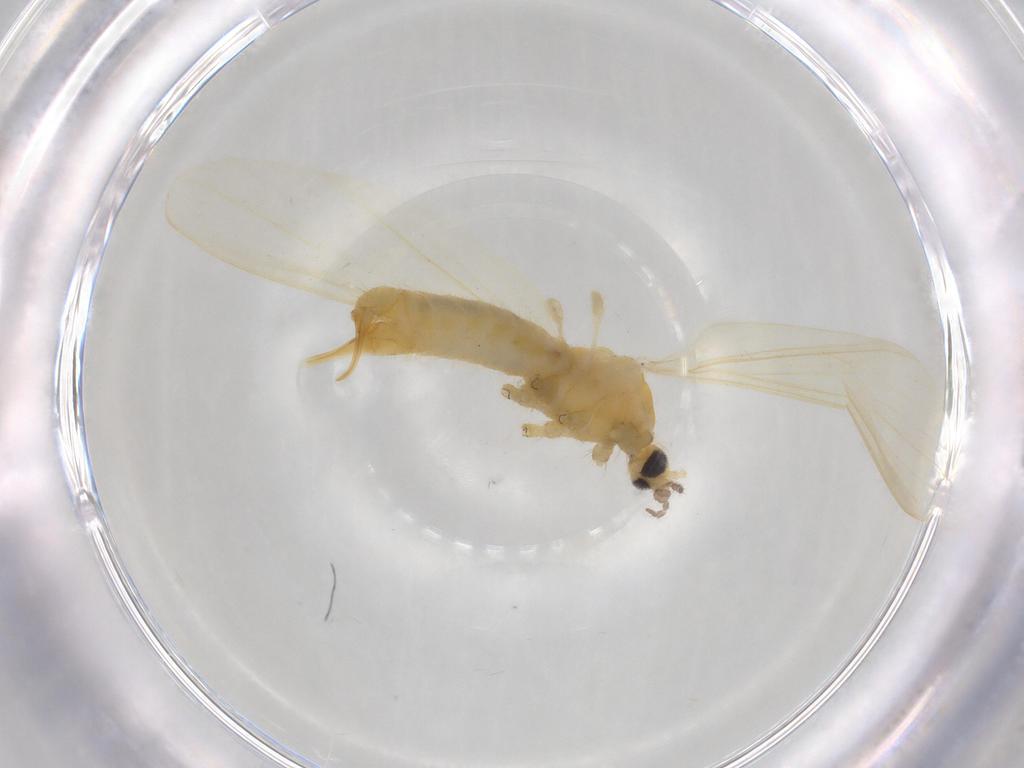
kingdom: Animalia
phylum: Arthropoda
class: Insecta
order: Diptera
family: Limoniidae
